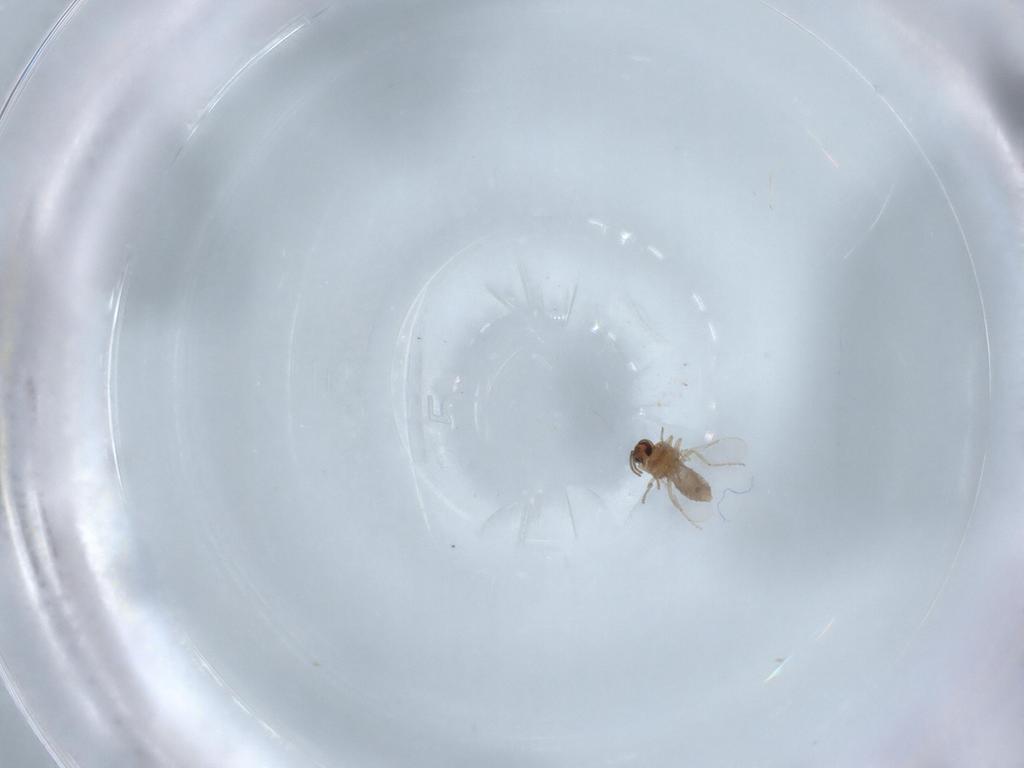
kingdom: Animalia
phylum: Arthropoda
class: Insecta
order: Diptera
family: Ceratopogonidae
